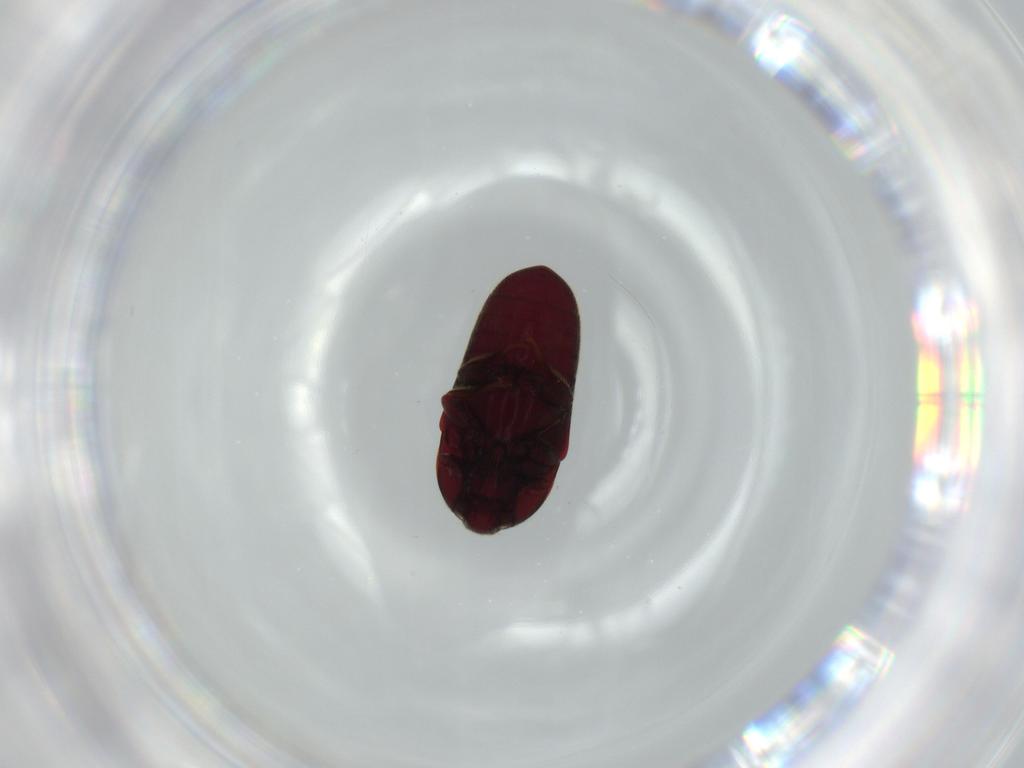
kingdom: Animalia
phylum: Arthropoda
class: Insecta
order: Coleoptera
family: Throscidae
